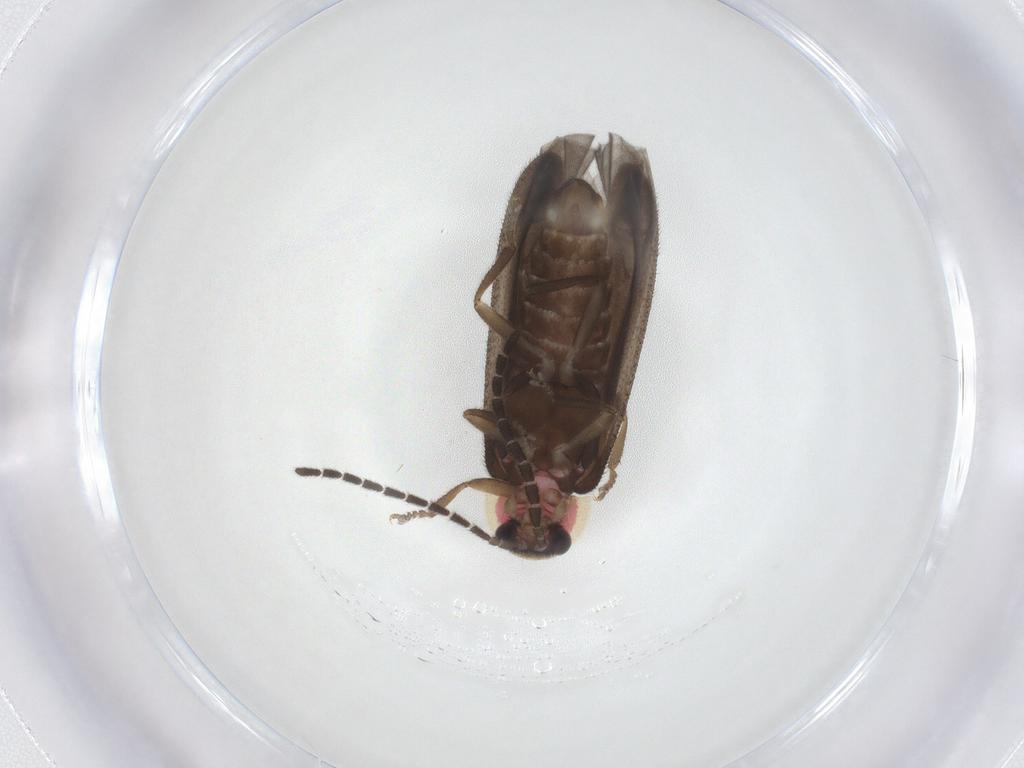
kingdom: Animalia
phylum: Arthropoda
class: Insecta
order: Coleoptera
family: Lampyridae
